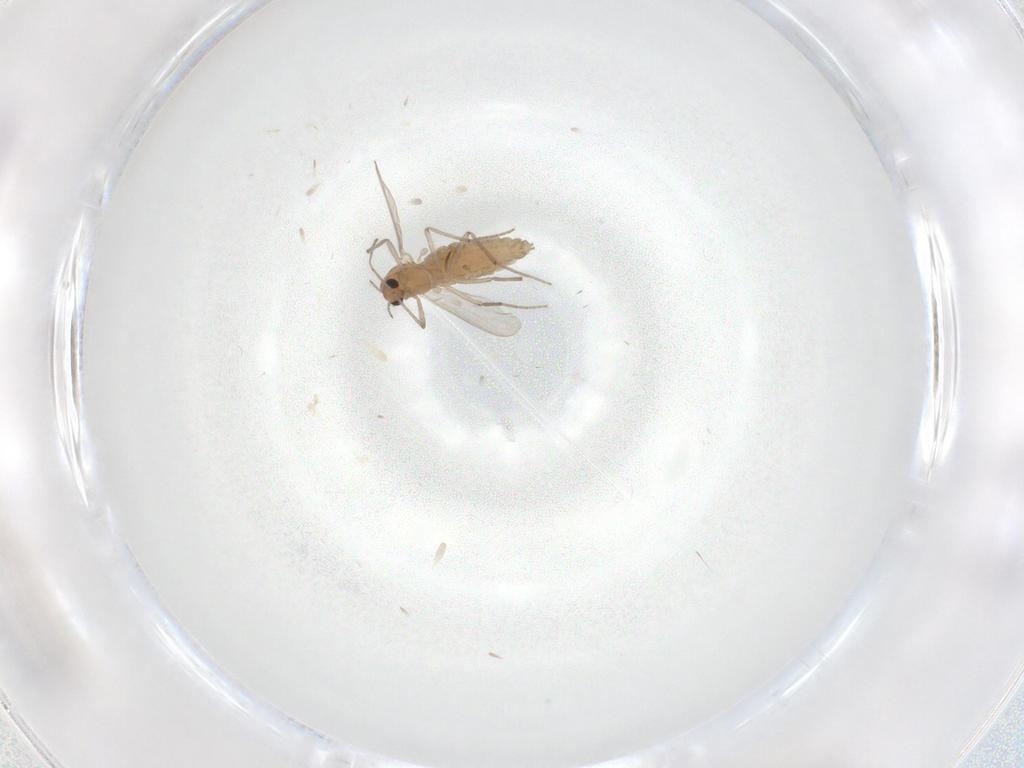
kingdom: Animalia
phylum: Arthropoda
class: Insecta
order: Diptera
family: Chironomidae
